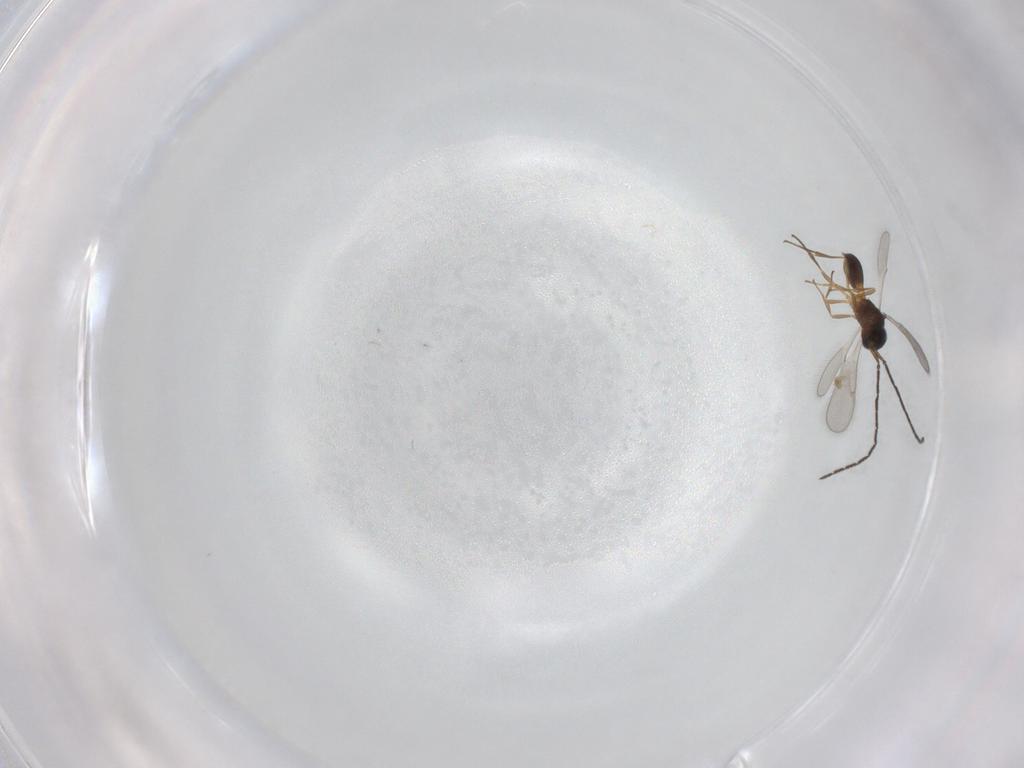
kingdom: Animalia
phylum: Arthropoda
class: Insecta
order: Hymenoptera
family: Scelionidae
